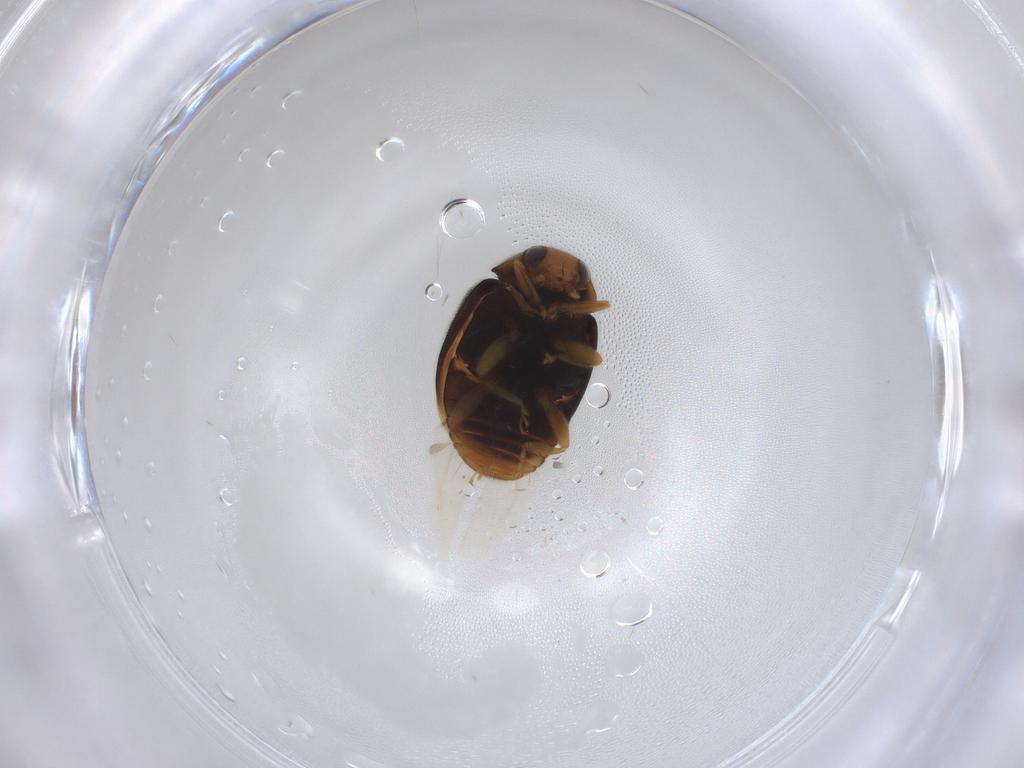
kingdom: Animalia
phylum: Arthropoda
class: Insecta
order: Coleoptera
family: Coccinellidae
